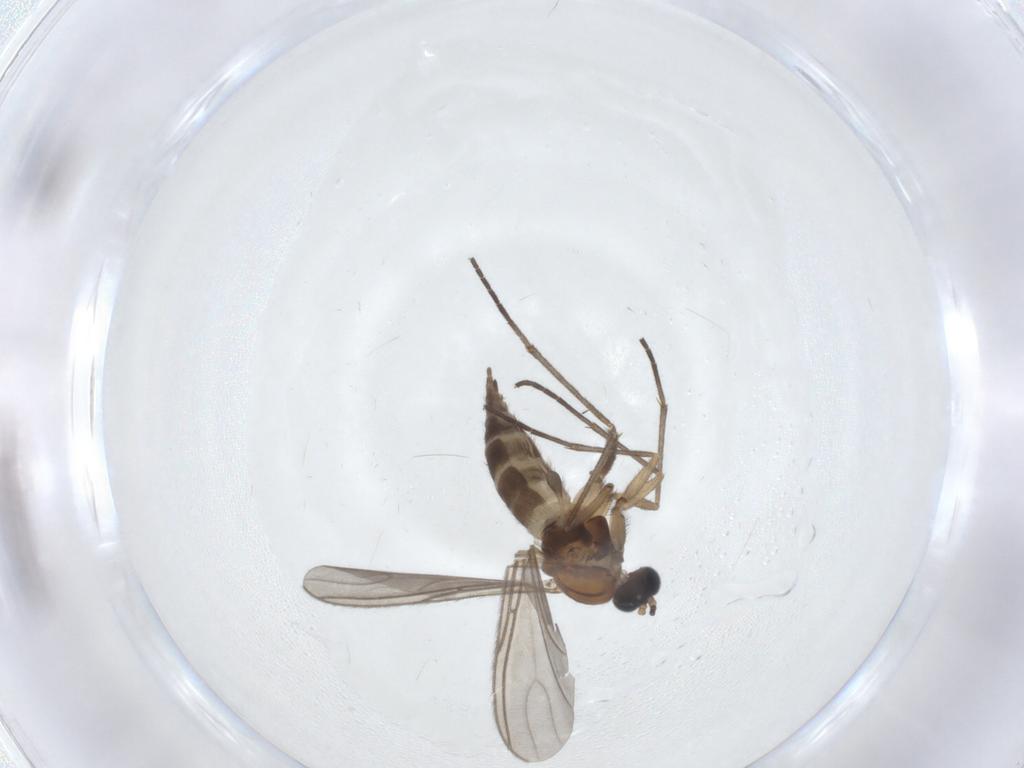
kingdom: Animalia
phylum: Arthropoda
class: Insecta
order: Diptera
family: Sciaridae
